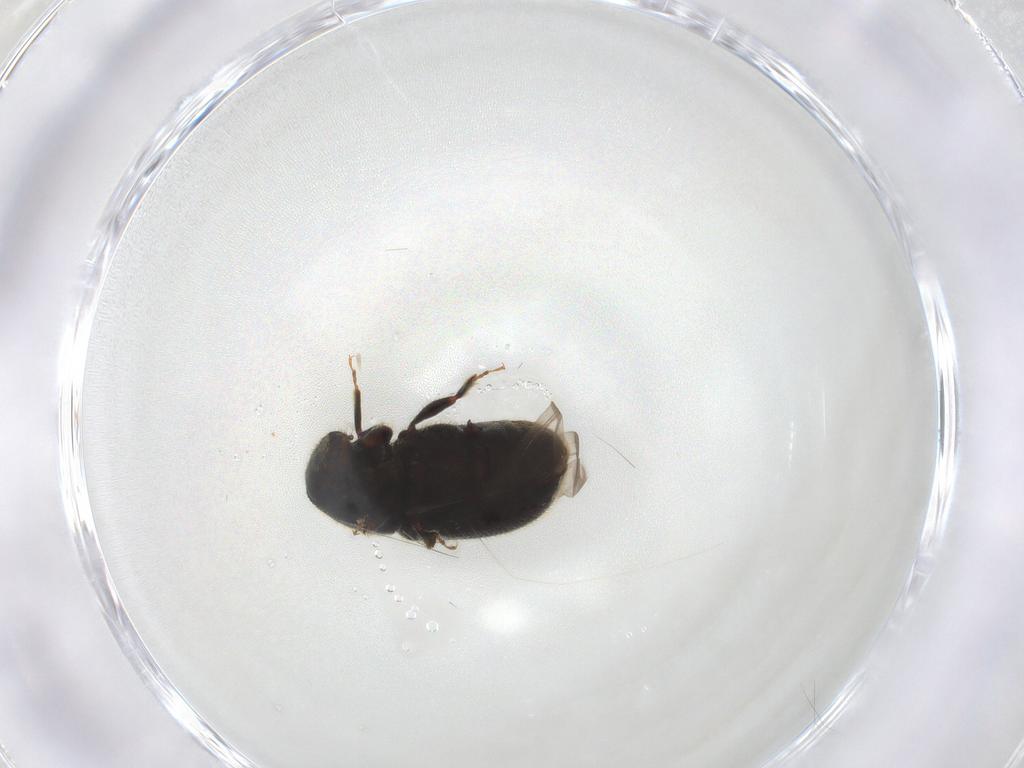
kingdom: Animalia
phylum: Arthropoda
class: Insecta
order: Coleoptera
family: Curculionidae
